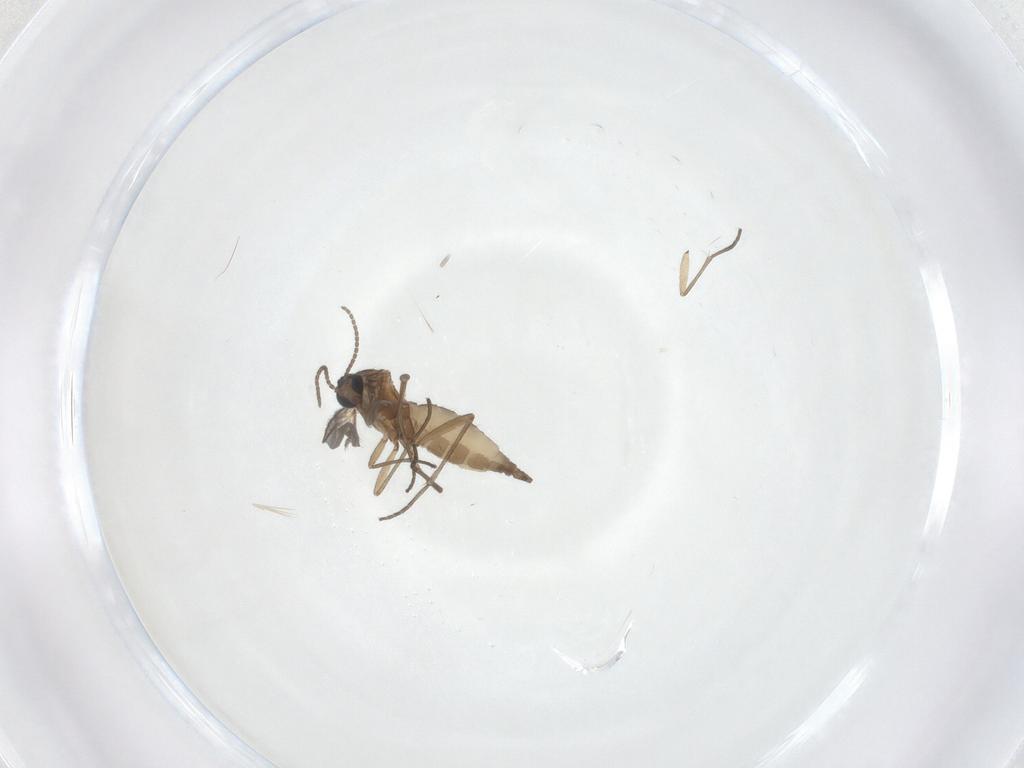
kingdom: Animalia
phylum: Arthropoda
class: Insecta
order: Diptera
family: Sciaridae
